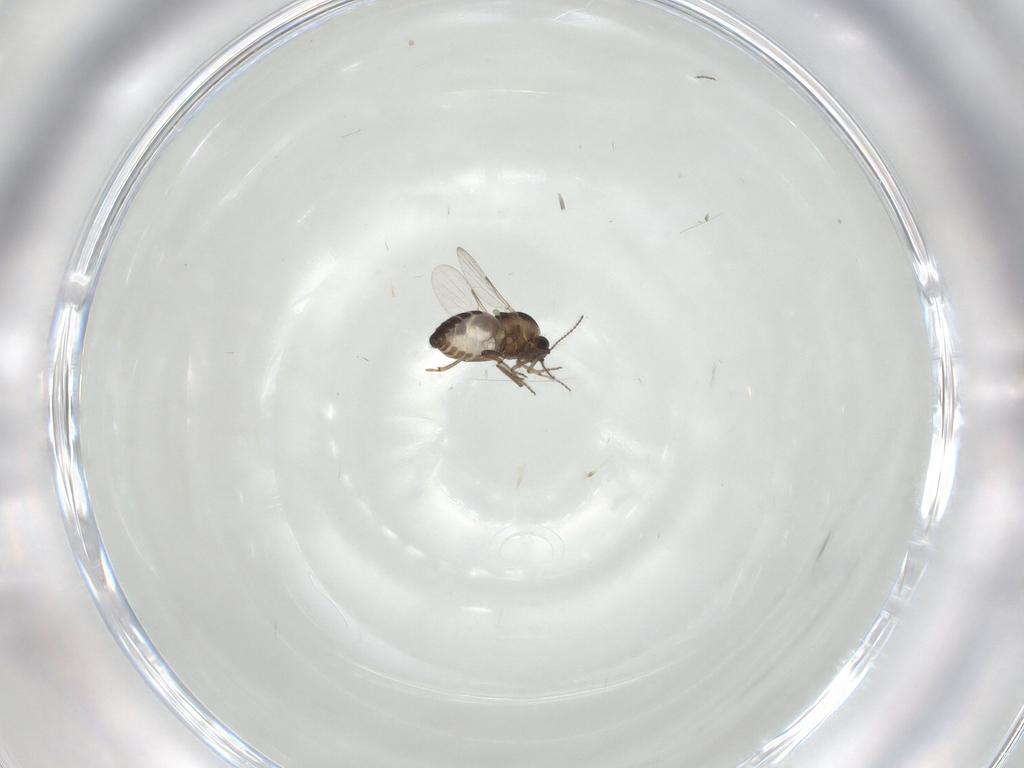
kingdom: Animalia
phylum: Arthropoda
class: Insecta
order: Diptera
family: Ceratopogonidae
